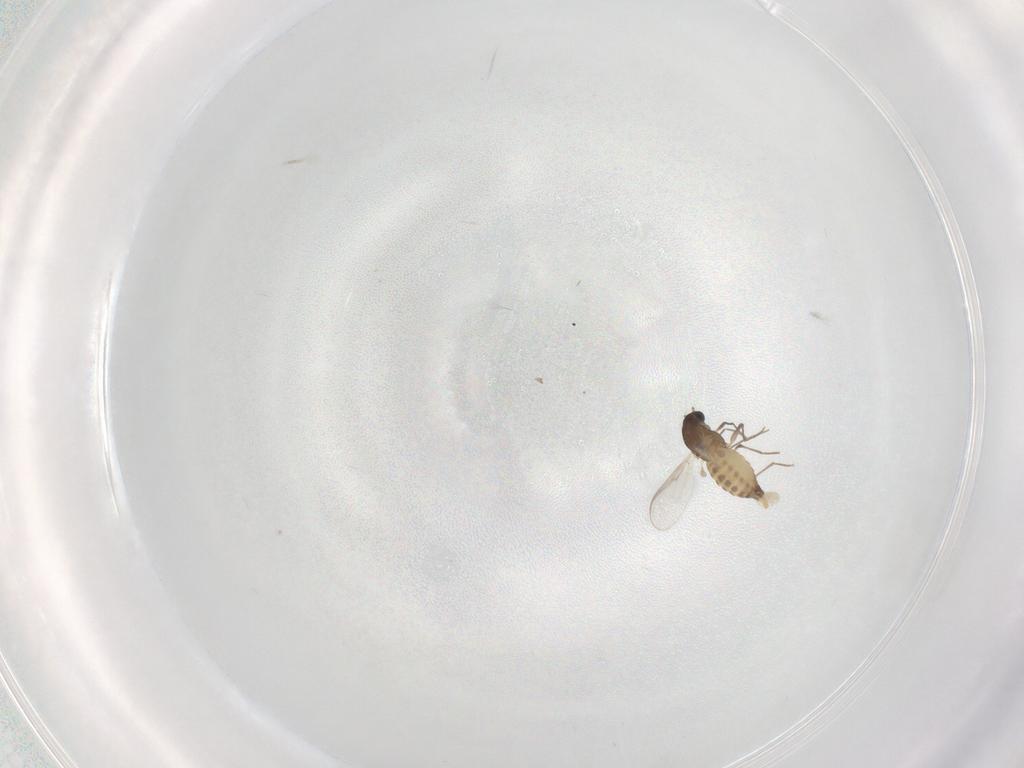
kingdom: Animalia
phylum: Arthropoda
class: Insecta
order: Diptera
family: Chironomidae
